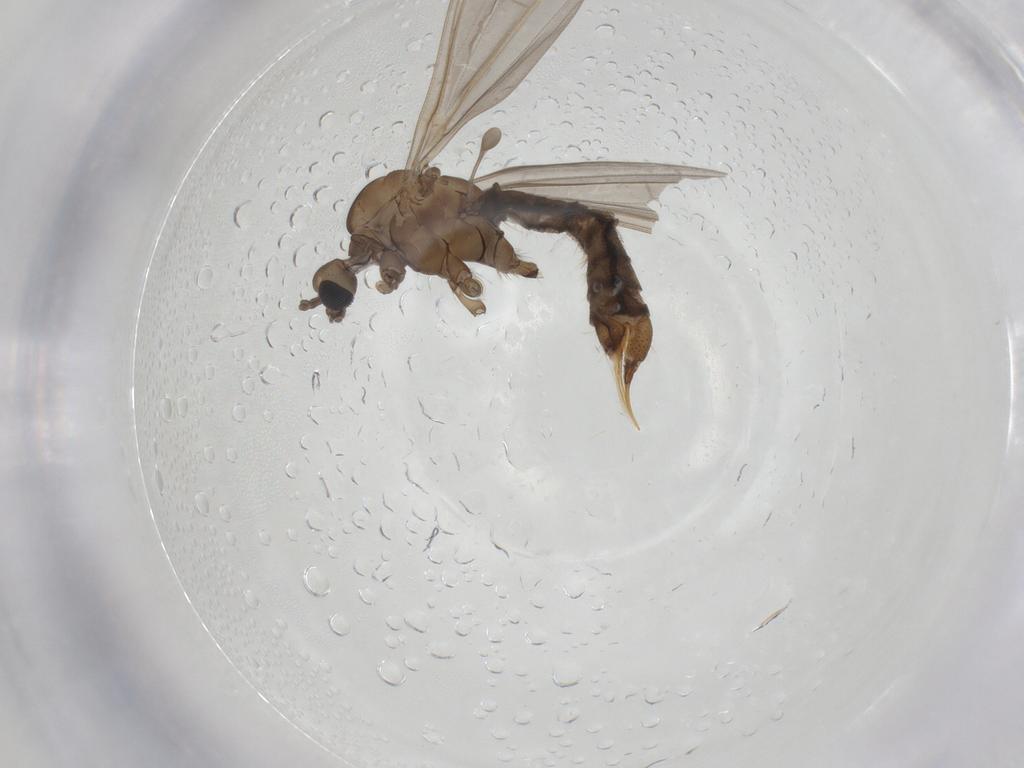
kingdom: Animalia
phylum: Arthropoda
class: Insecta
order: Diptera
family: Limoniidae
